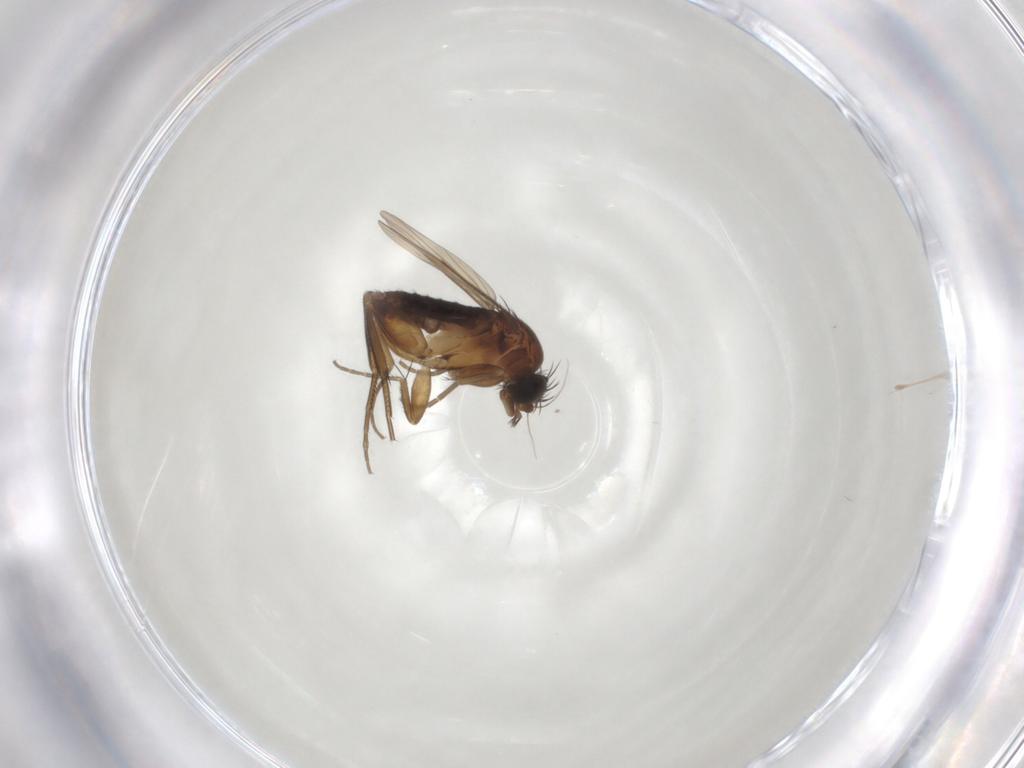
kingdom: Animalia
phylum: Arthropoda
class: Insecta
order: Diptera
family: Phoridae
